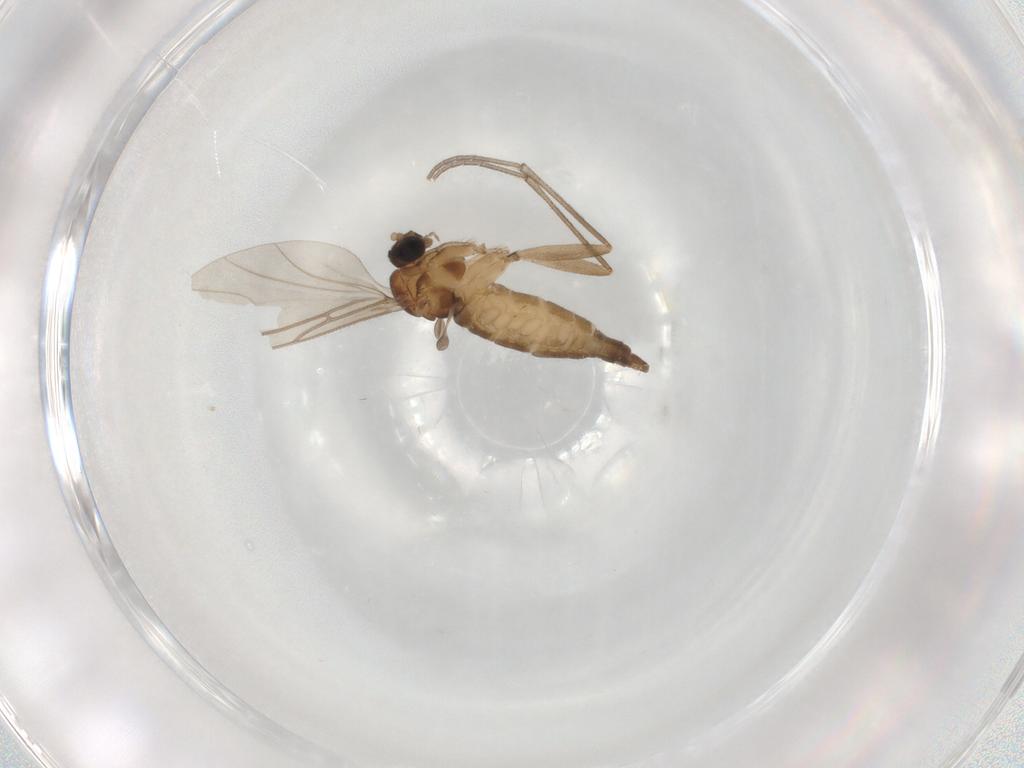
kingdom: Animalia
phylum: Arthropoda
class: Insecta
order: Diptera
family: Sciaridae
